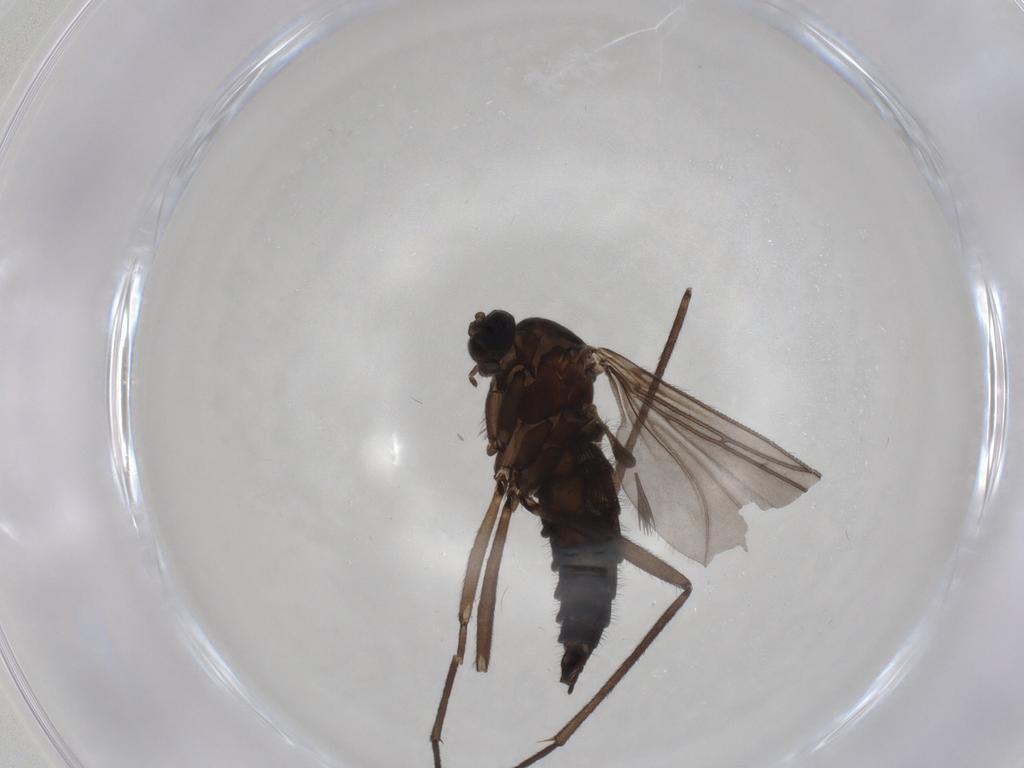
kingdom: Animalia
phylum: Arthropoda
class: Insecta
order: Diptera
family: Sciaridae
